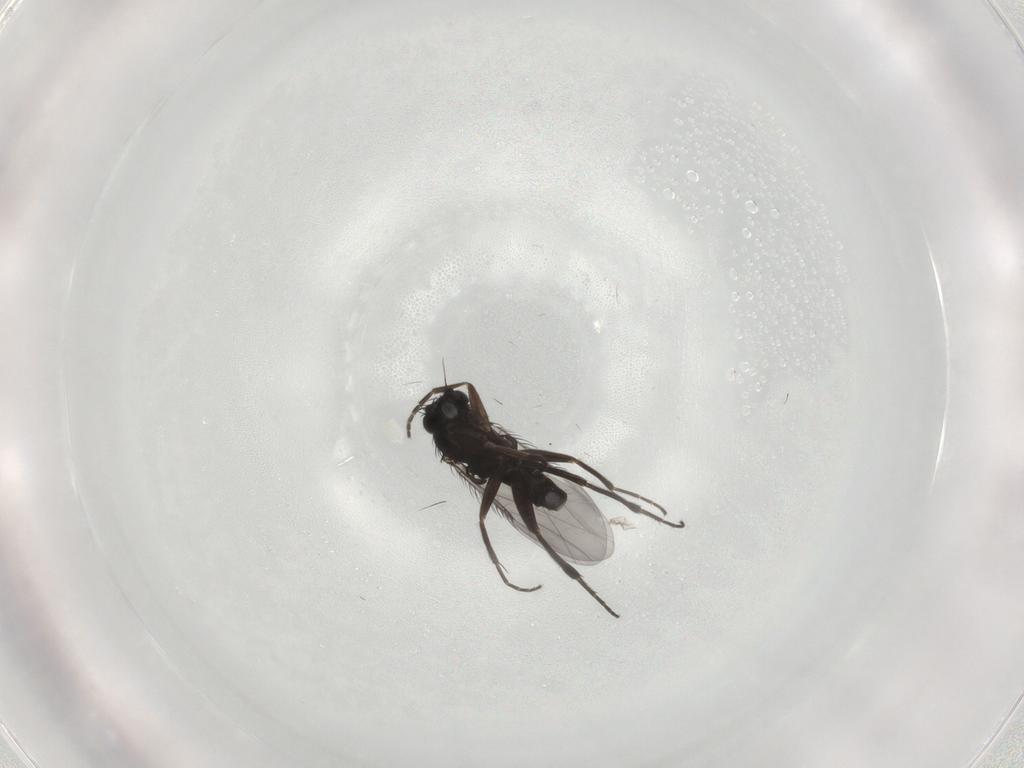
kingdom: Animalia
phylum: Arthropoda
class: Insecta
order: Diptera
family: Phoridae
